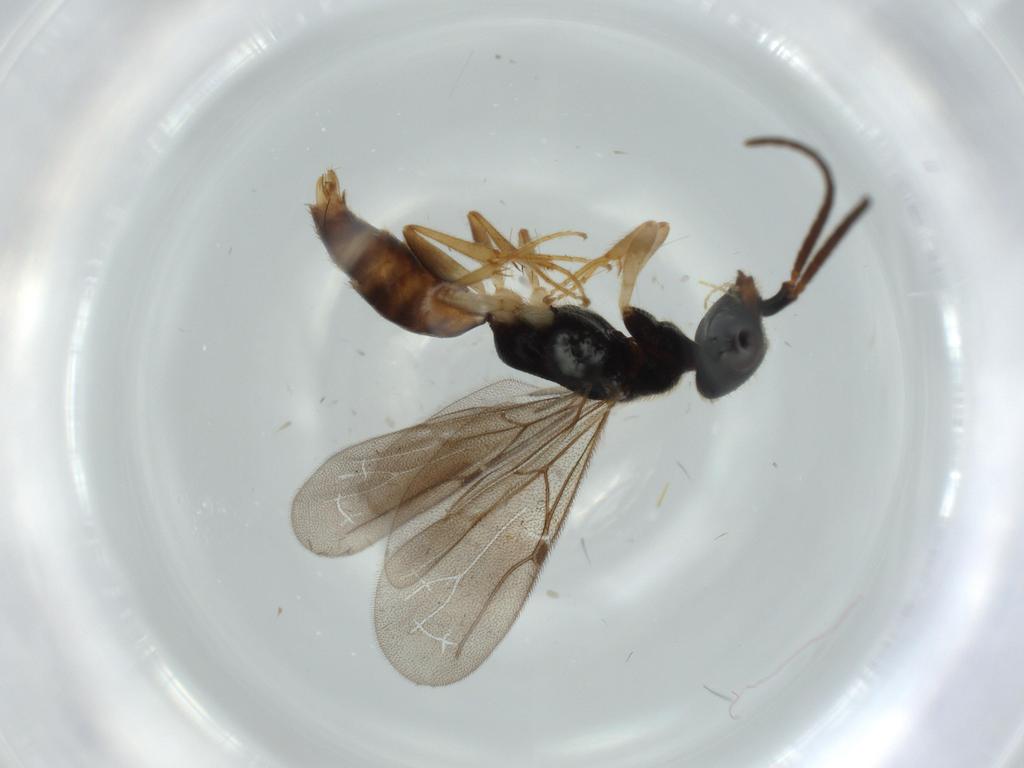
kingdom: Animalia
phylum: Arthropoda
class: Insecta
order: Hymenoptera
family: Bethylidae
